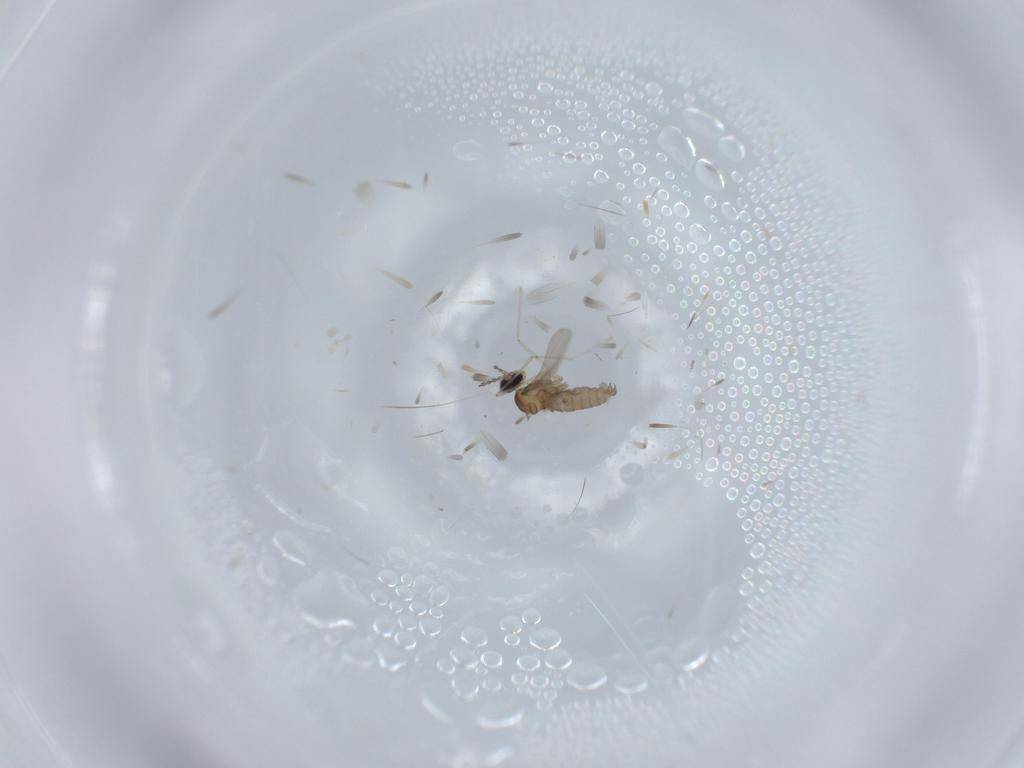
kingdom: Animalia
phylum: Arthropoda
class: Insecta
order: Diptera
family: Cecidomyiidae
